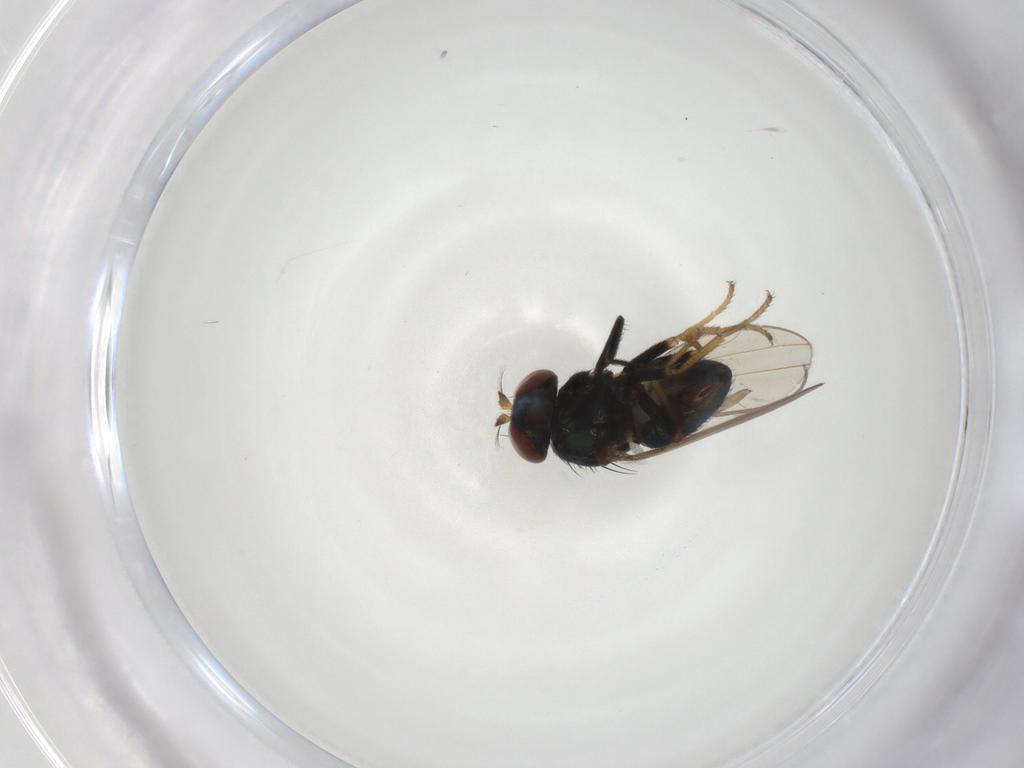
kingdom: Animalia
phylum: Arthropoda
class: Insecta
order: Diptera
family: Ephydridae
